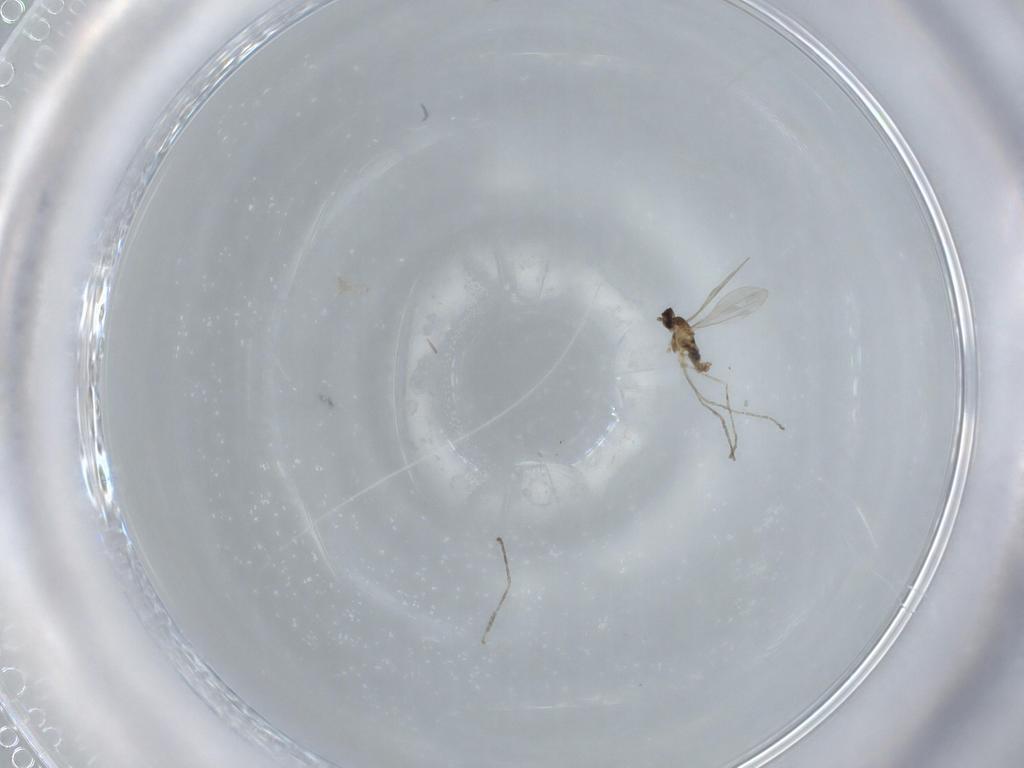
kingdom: Animalia
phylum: Arthropoda
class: Insecta
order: Diptera
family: Cecidomyiidae
